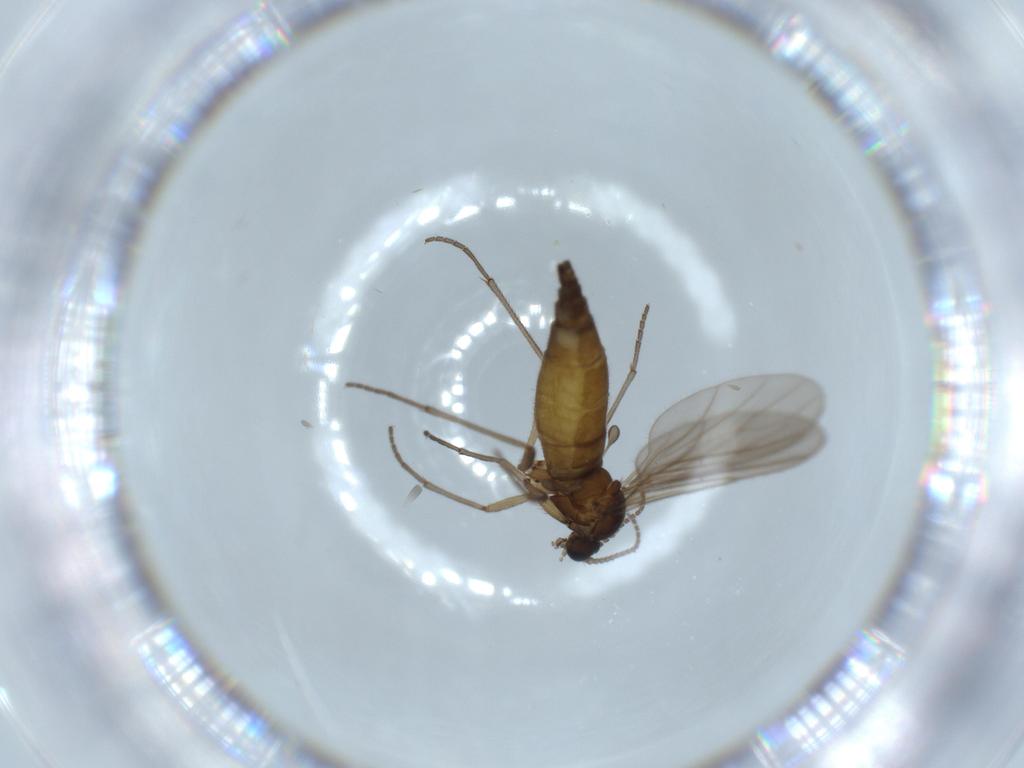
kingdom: Animalia
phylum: Arthropoda
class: Insecta
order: Diptera
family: Sciaridae
